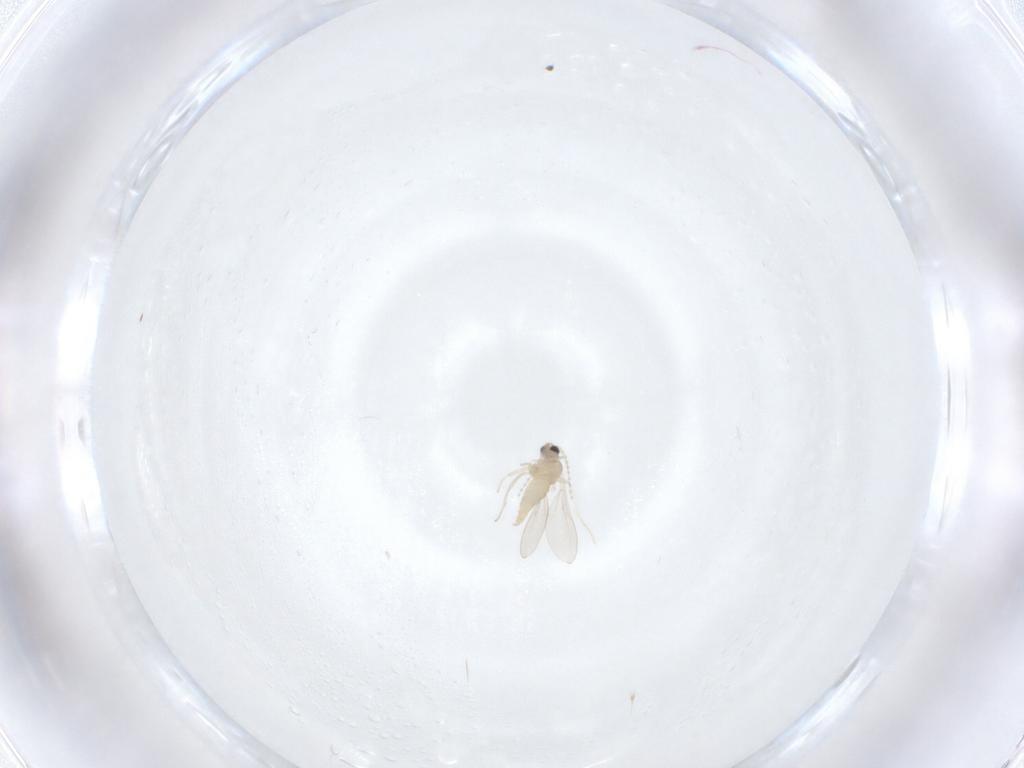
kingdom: Animalia
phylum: Arthropoda
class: Insecta
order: Diptera
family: Cecidomyiidae
